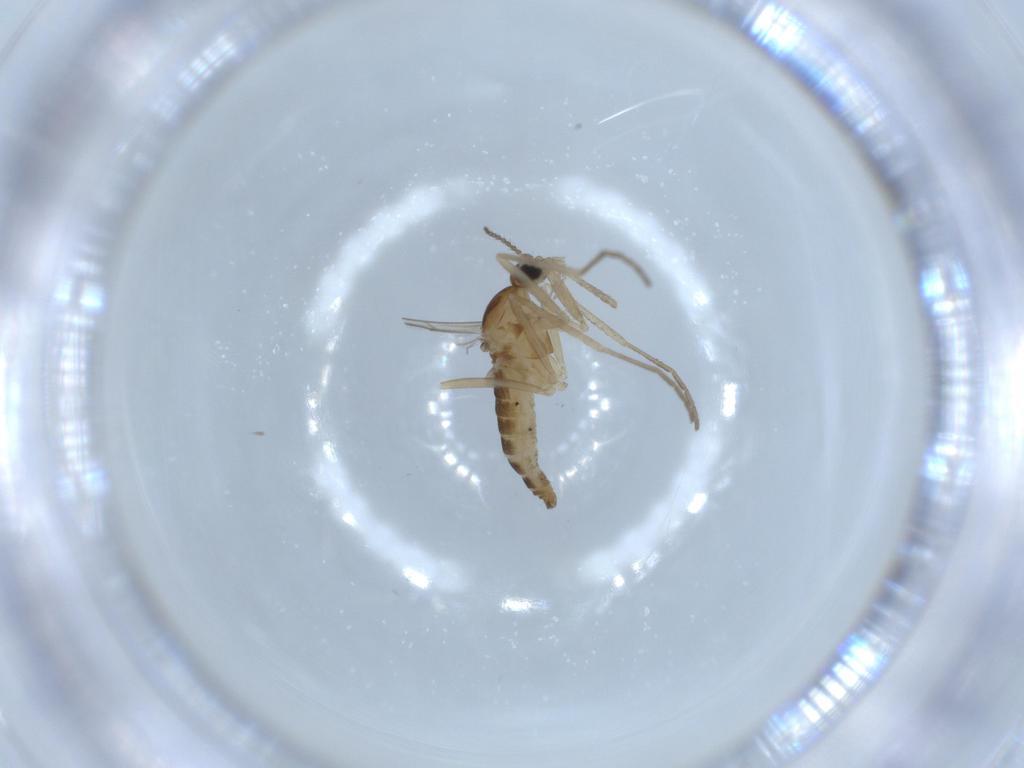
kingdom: Animalia
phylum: Arthropoda
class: Insecta
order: Diptera
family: Cecidomyiidae
